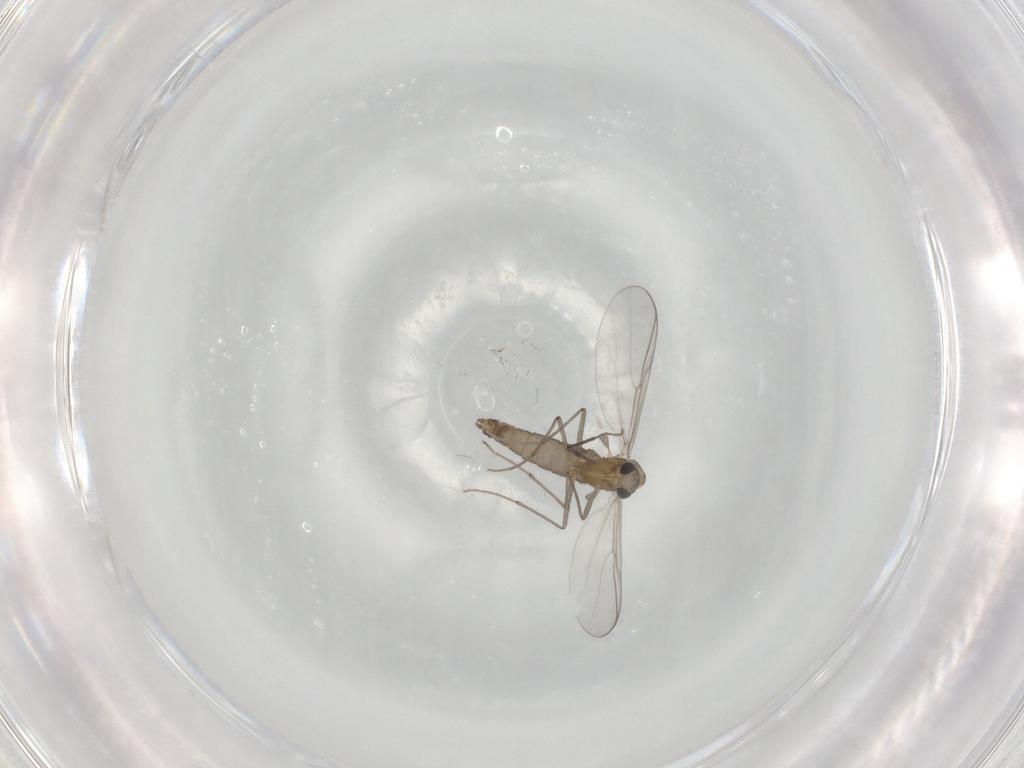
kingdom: Animalia
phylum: Arthropoda
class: Insecta
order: Diptera
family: Chironomidae
